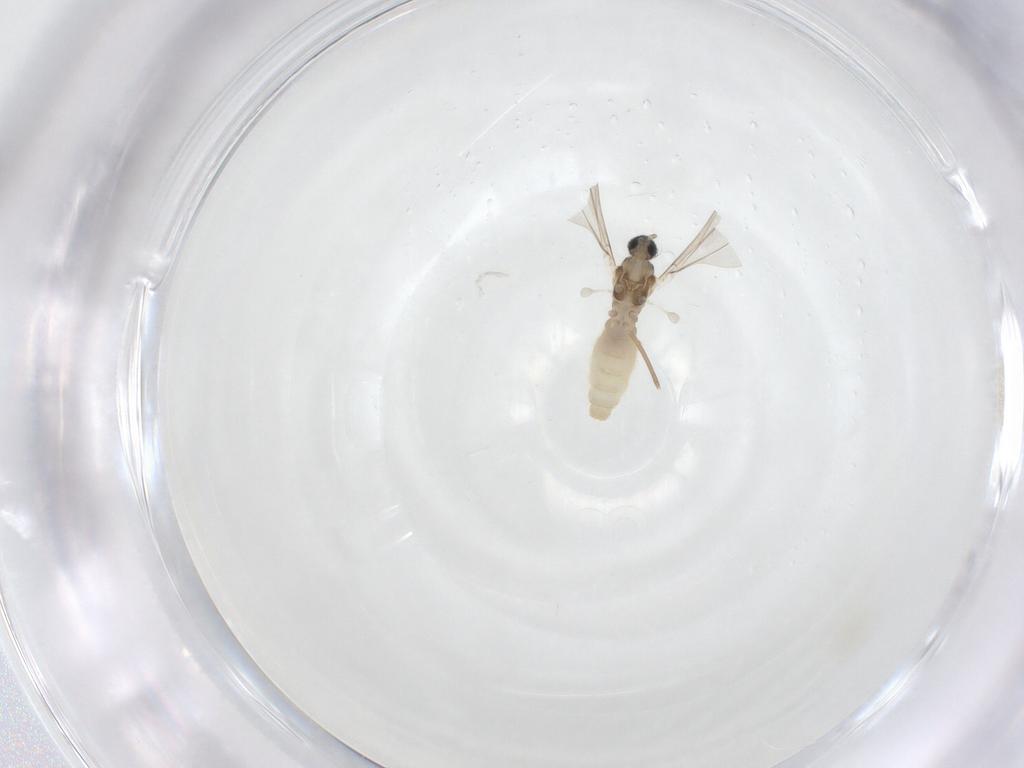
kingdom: Animalia
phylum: Arthropoda
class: Insecta
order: Diptera
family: Cecidomyiidae
